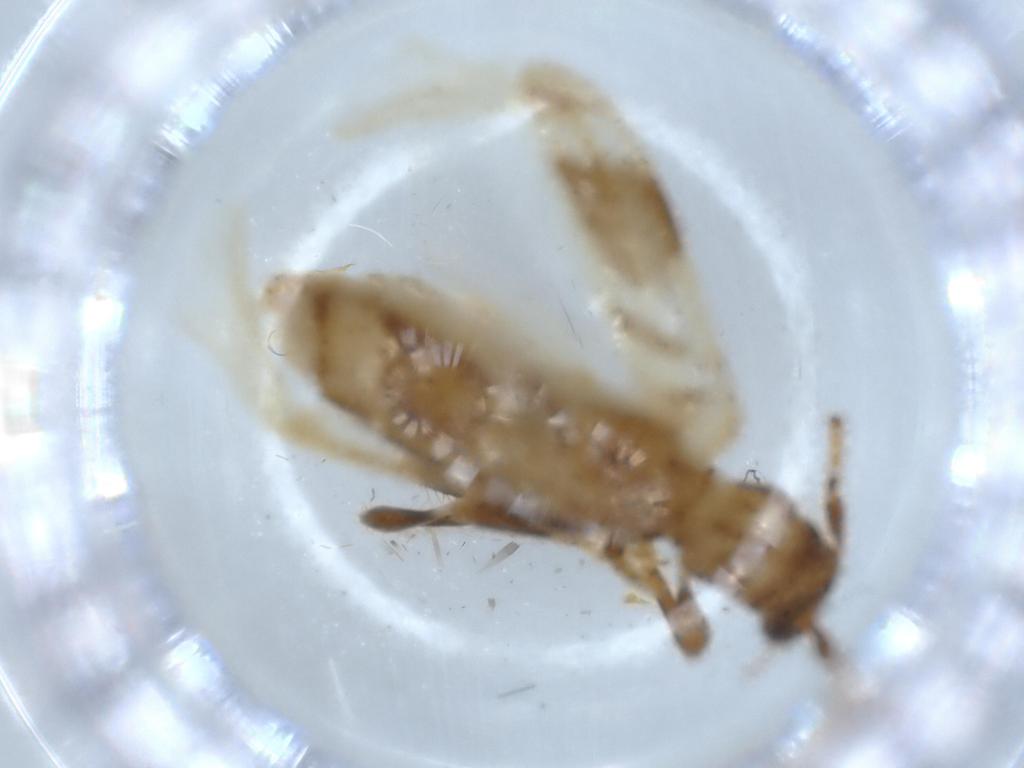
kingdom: Animalia
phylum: Arthropoda
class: Insecta
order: Coleoptera
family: Cerambycidae
